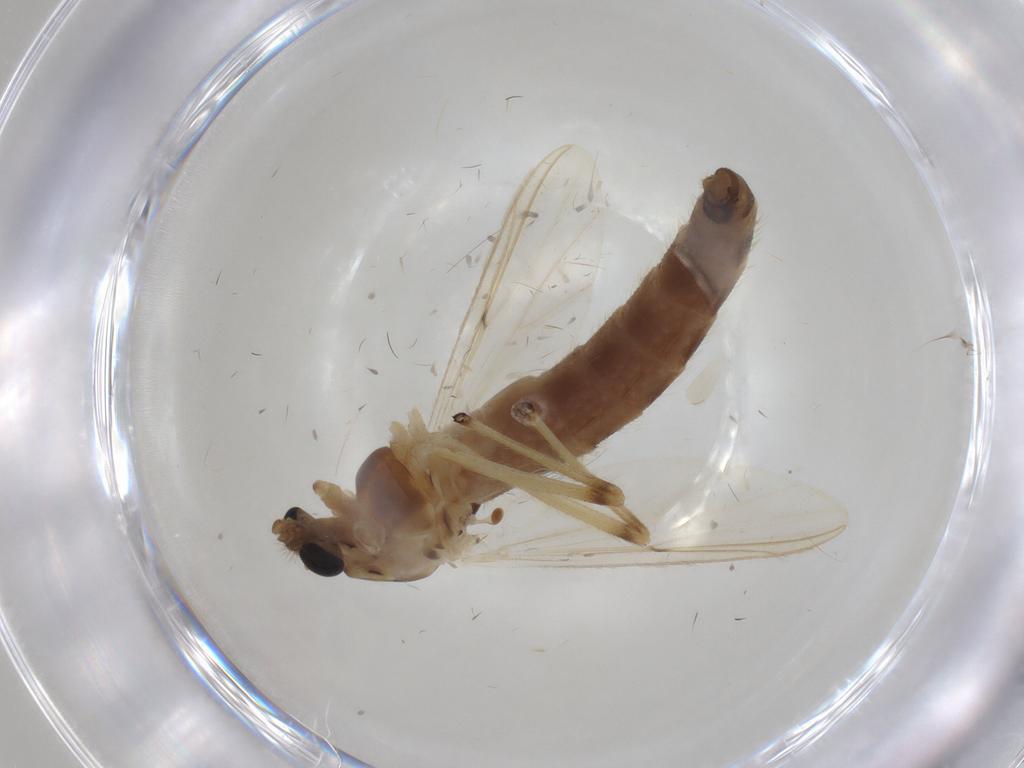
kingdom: Animalia
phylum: Arthropoda
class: Insecta
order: Diptera
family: Chironomidae
